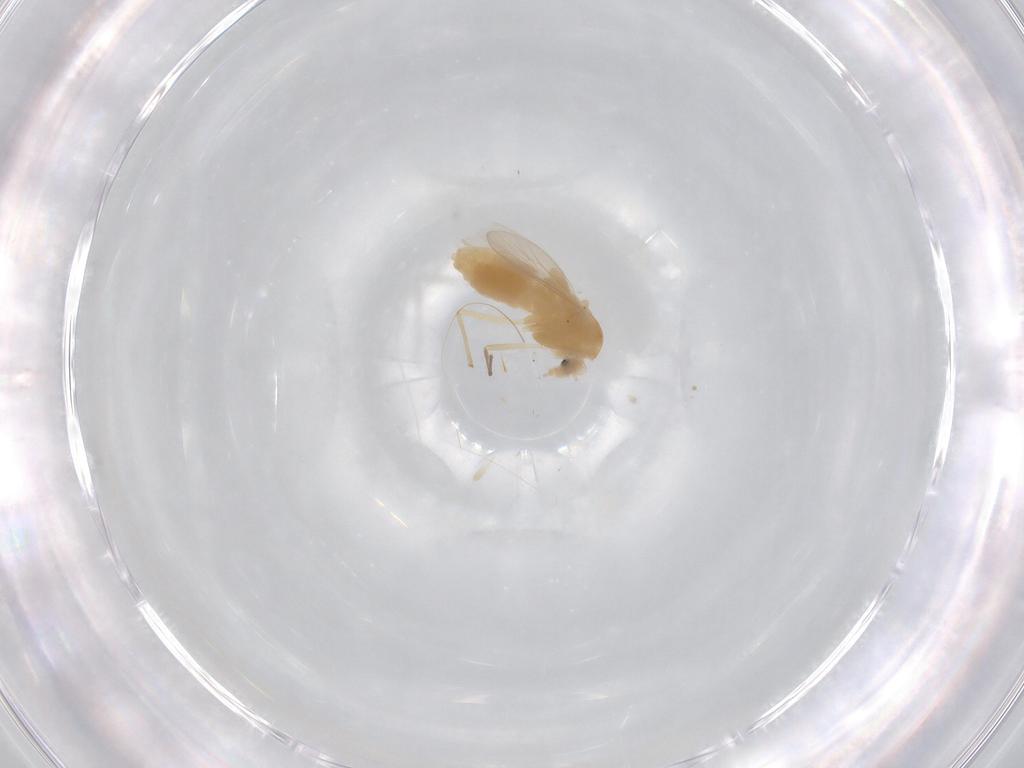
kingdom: Animalia
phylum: Arthropoda
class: Insecta
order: Diptera
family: Chironomidae
